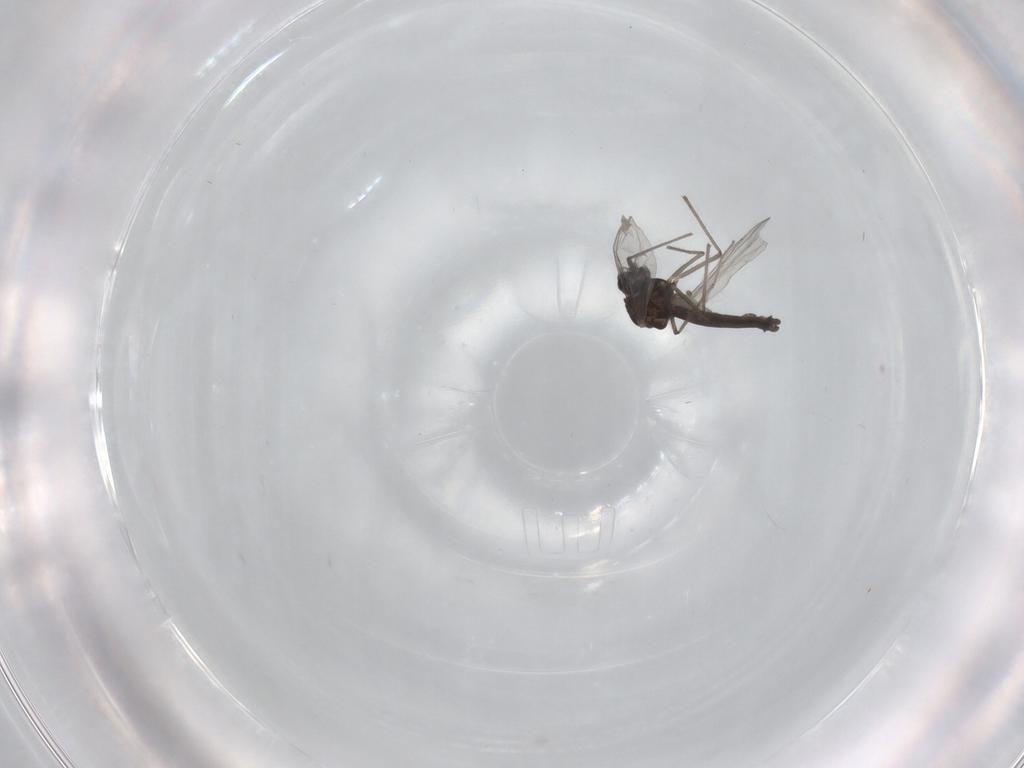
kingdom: Animalia
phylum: Arthropoda
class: Insecta
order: Diptera
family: Chironomidae
